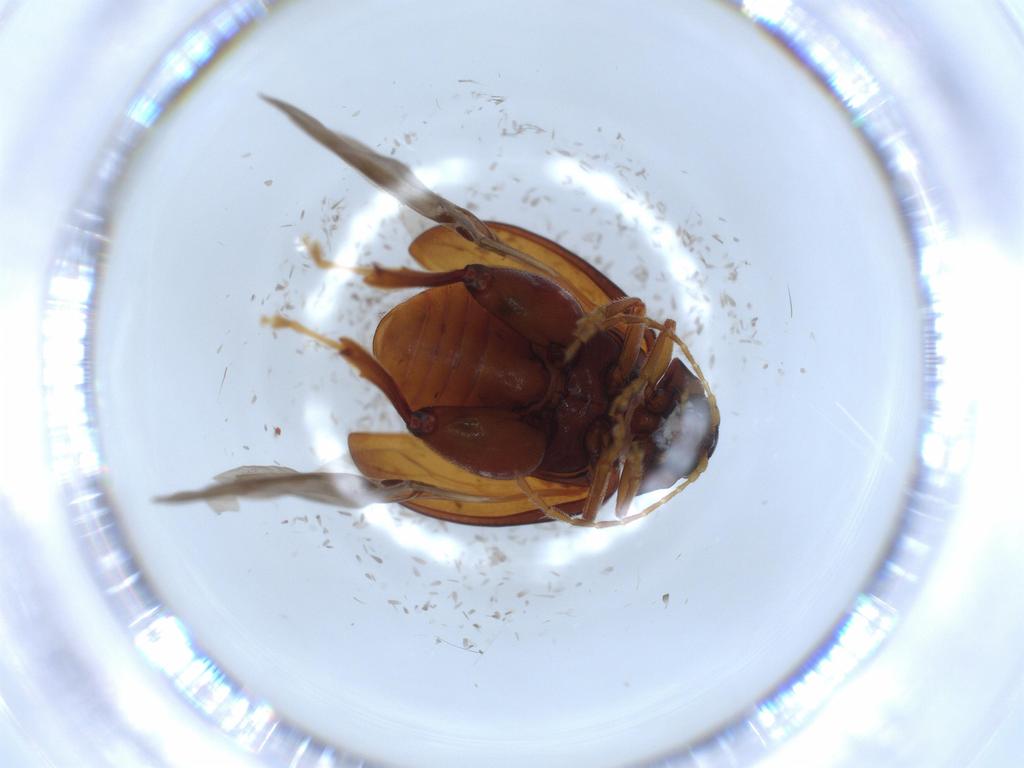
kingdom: Animalia
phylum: Arthropoda
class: Insecta
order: Coleoptera
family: Chrysomelidae
